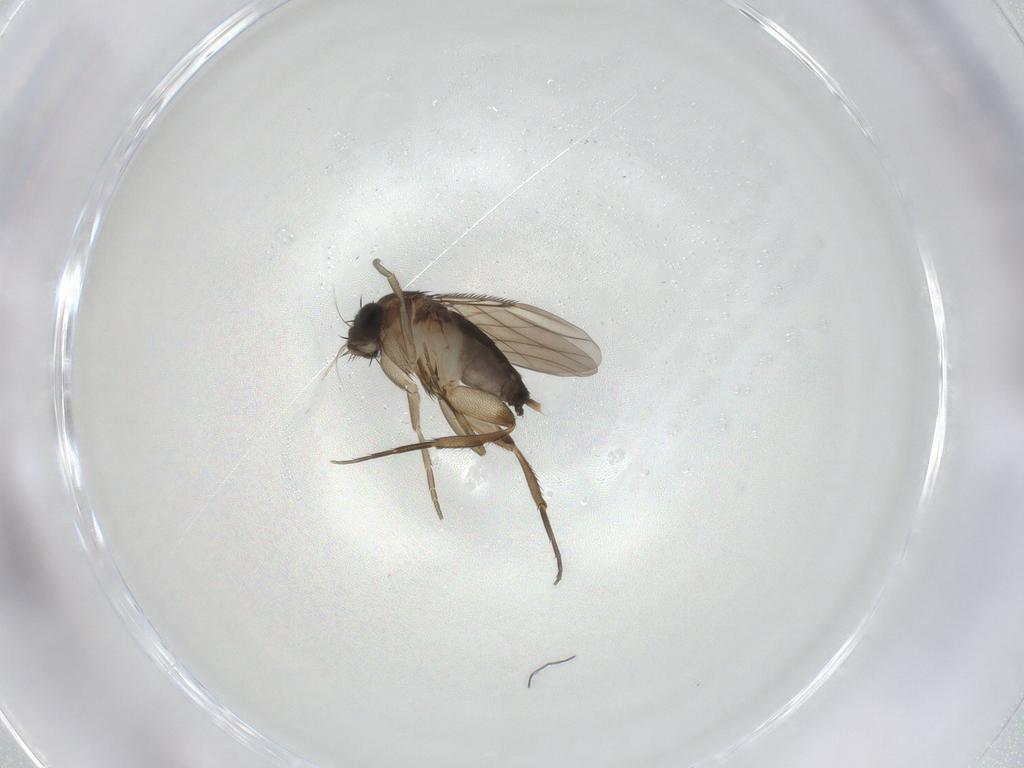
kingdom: Animalia
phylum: Arthropoda
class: Insecta
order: Diptera
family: Phoridae
